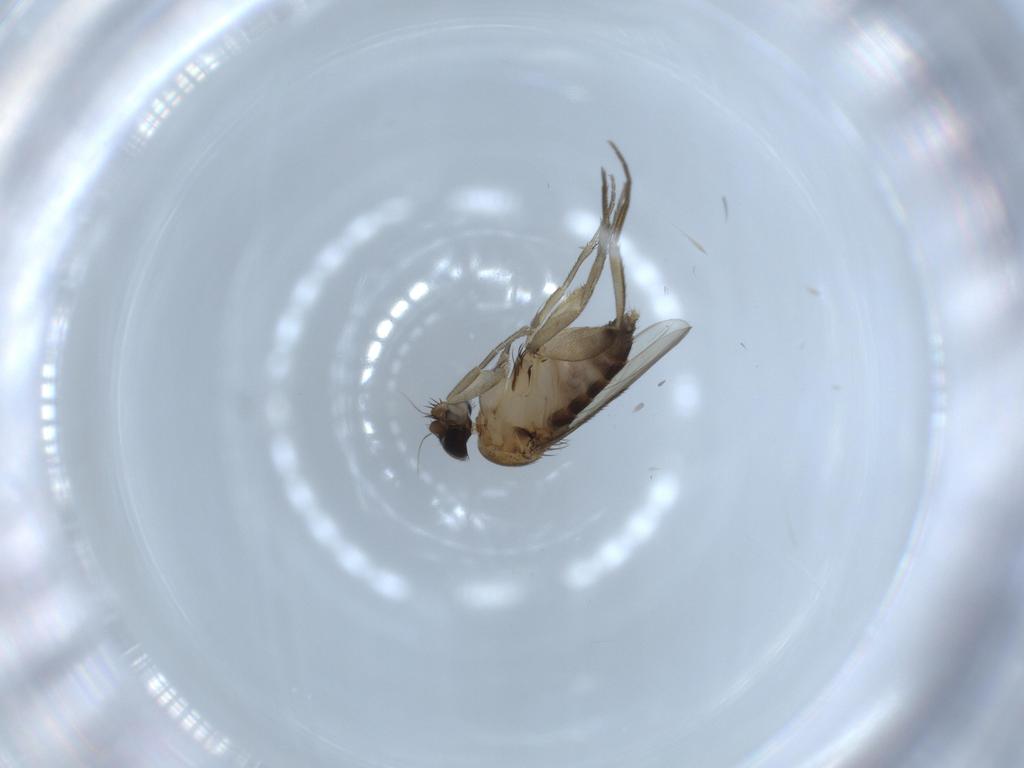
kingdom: Animalia
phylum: Arthropoda
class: Insecta
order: Diptera
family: Phoridae
